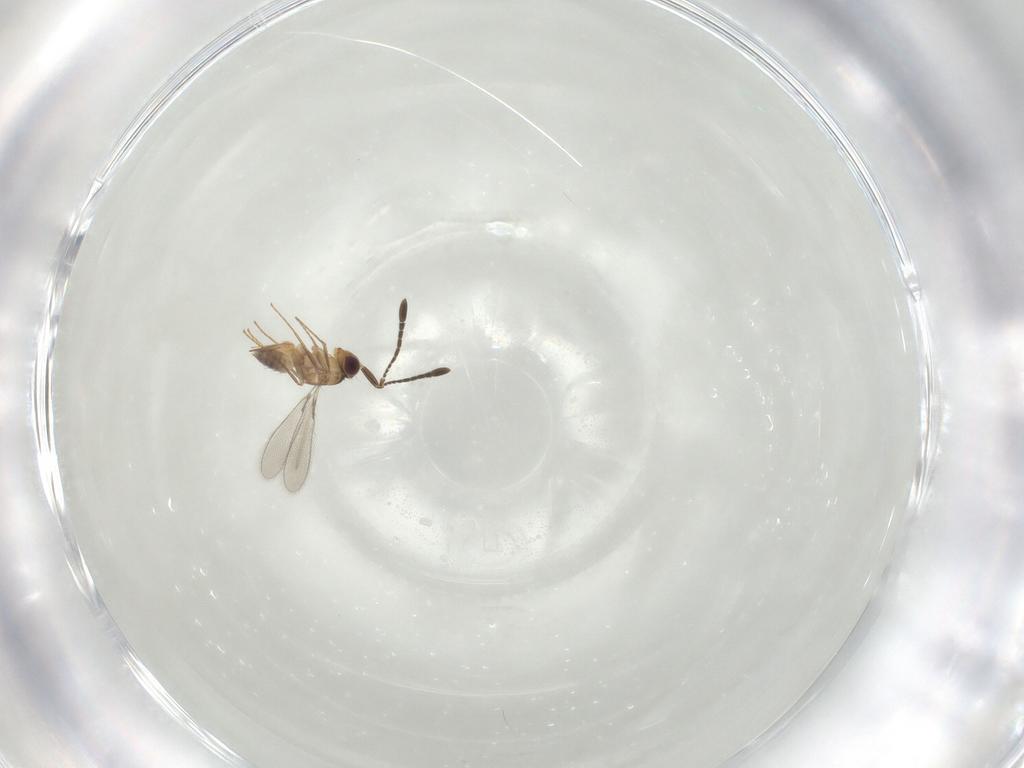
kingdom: Animalia
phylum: Arthropoda
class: Insecta
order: Hymenoptera
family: Mymaridae
